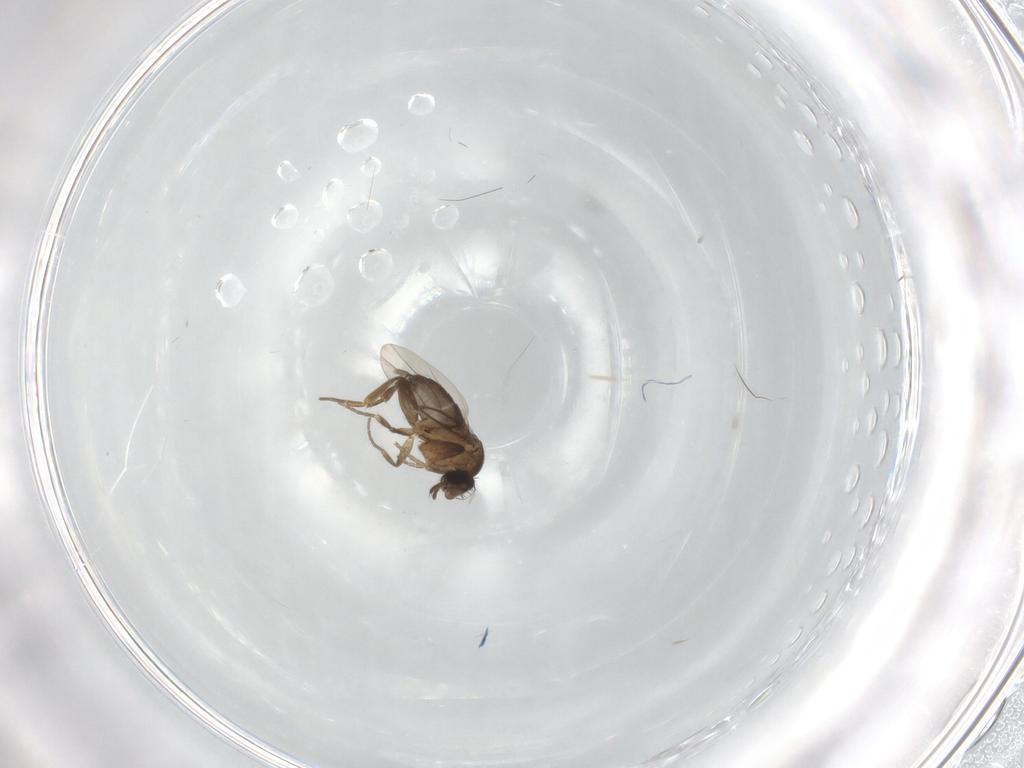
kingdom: Animalia
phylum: Arthropoda
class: Insecta
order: Diptera
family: Phoridae
